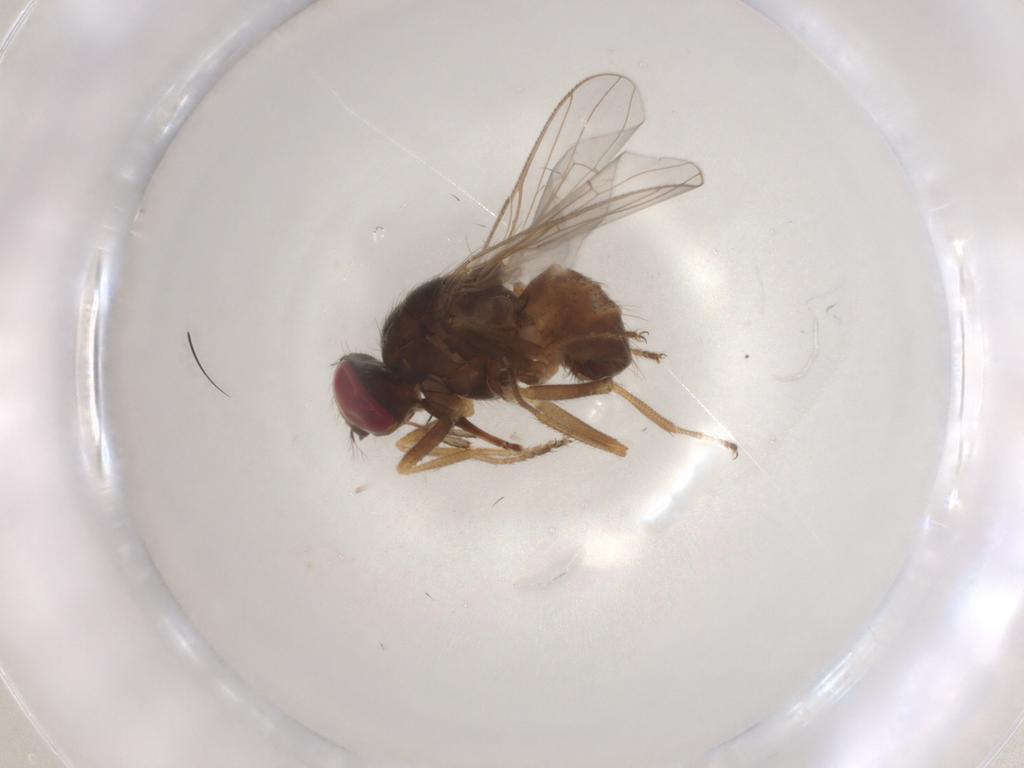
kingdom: Animalia
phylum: Arthropoda
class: Insecta
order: Diptera
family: Muscidae
